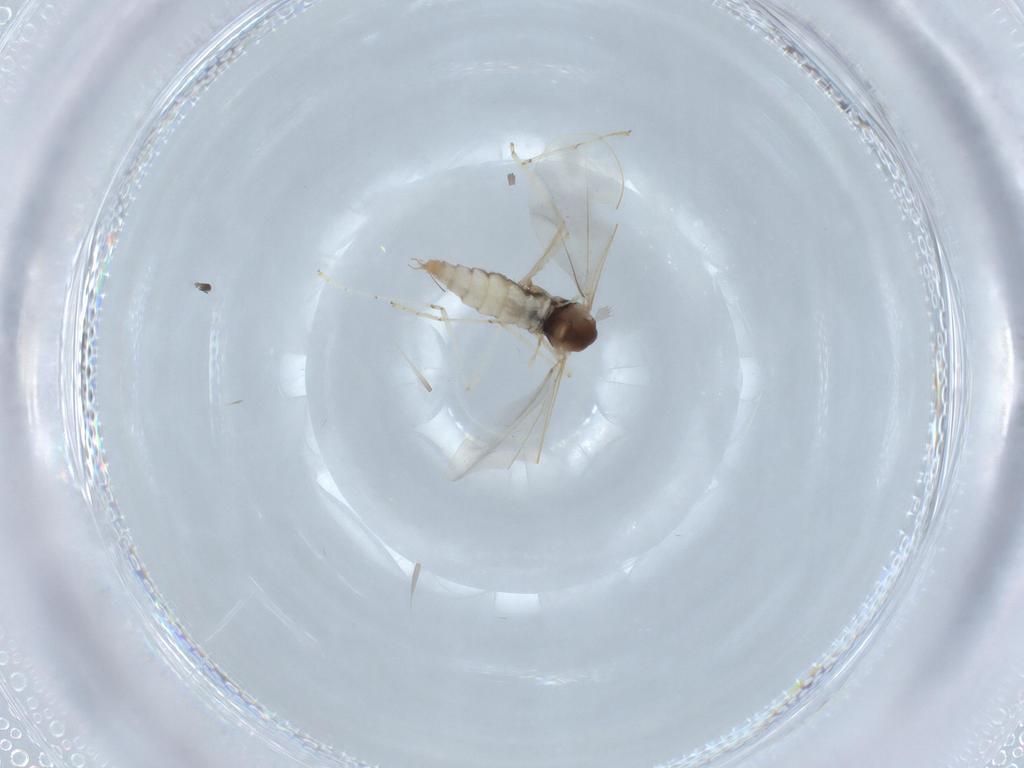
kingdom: Animalia
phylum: Arthropoda
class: Insecta
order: Diptera
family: Cecidomyiidae
